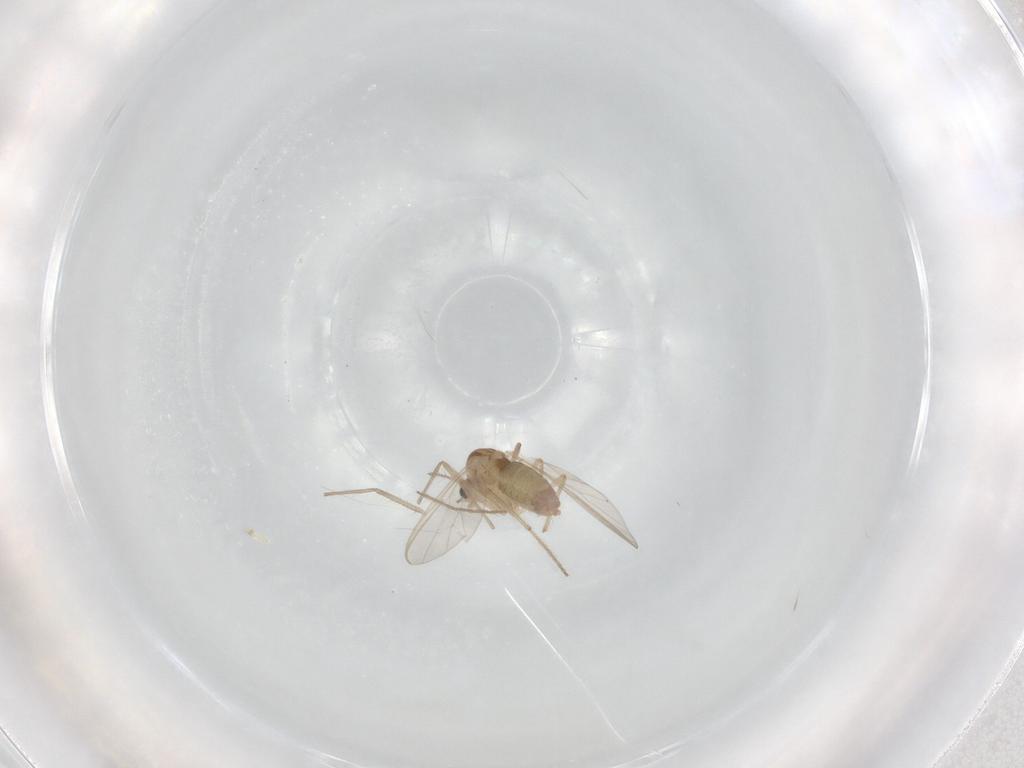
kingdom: Animalia
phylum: Arthropoda
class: Insecta
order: Diptera
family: Chironomidae
